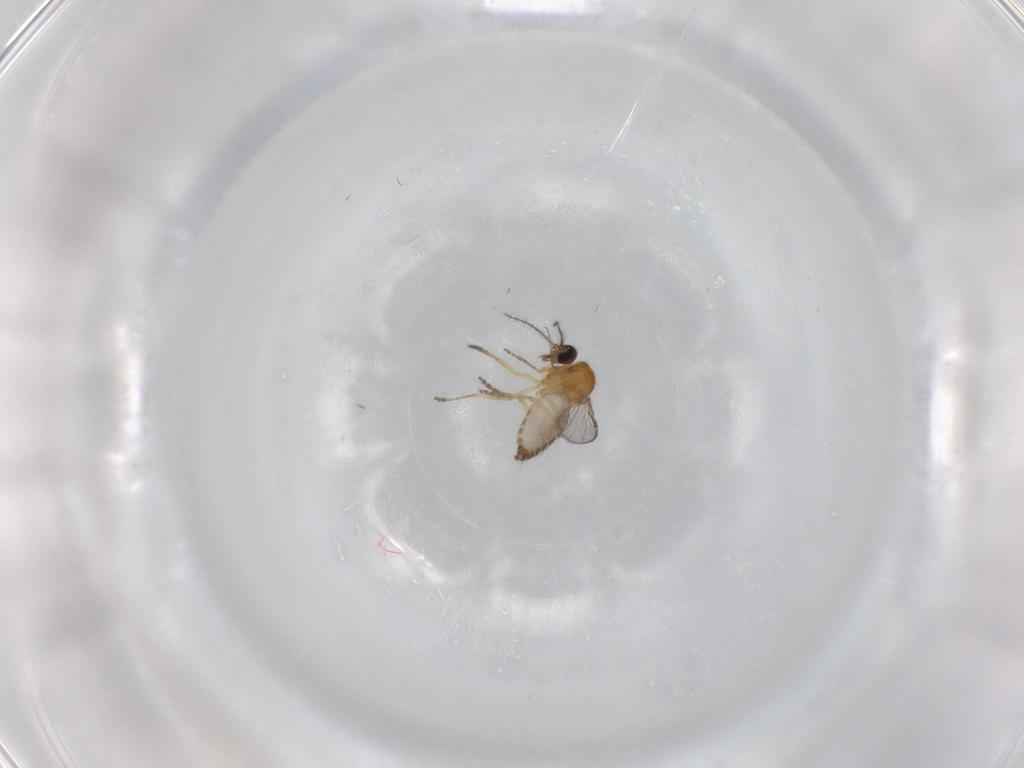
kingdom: Animalia
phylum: Arthropoda
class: Insecta
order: Diptera
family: Ceratopogonidae
